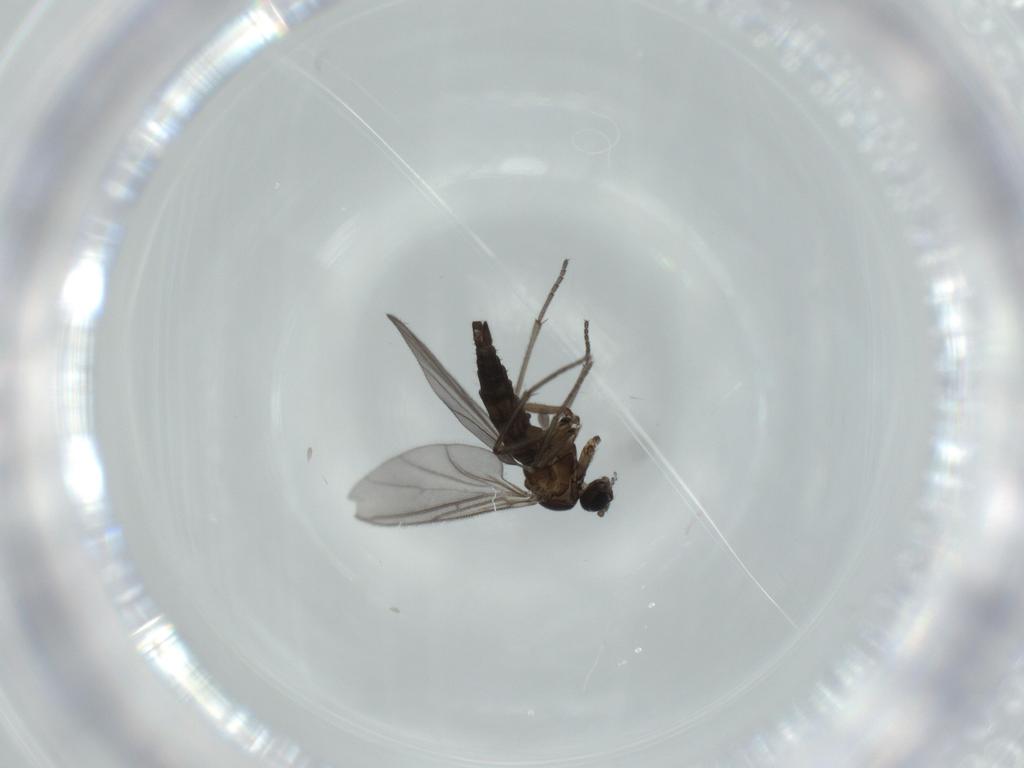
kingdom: Animalia
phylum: Arthropoda
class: Insecta
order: Diptera
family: Sciaridae
